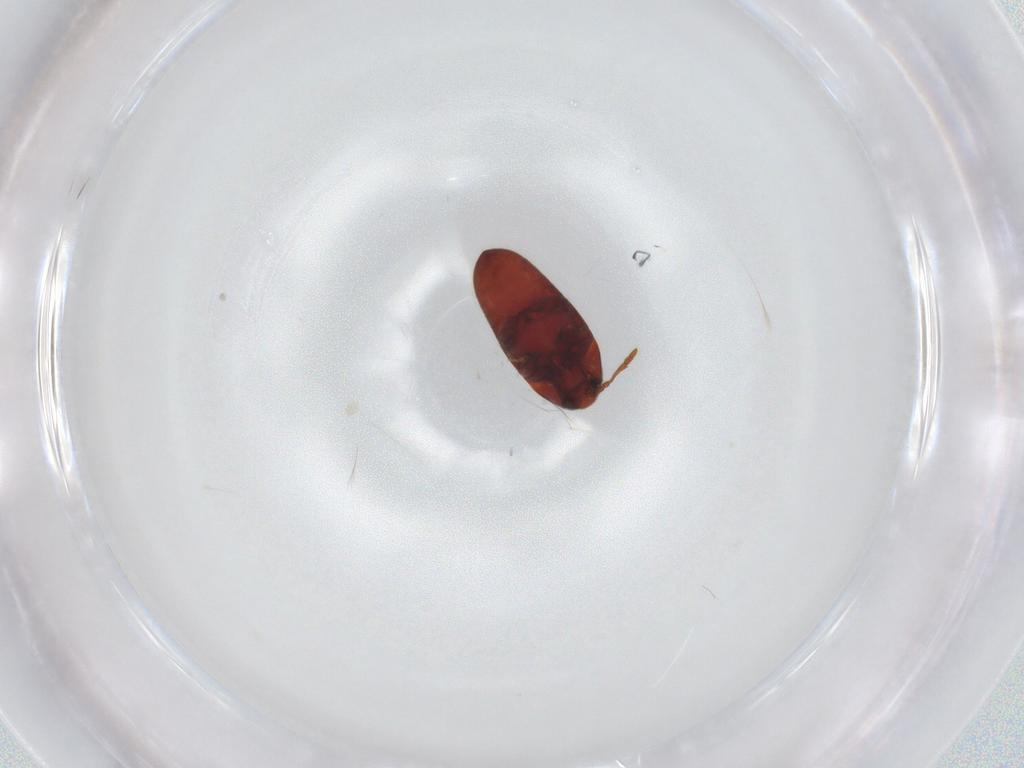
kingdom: Animalia
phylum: Arthropoda
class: Insecta
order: Coleoptera
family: Throscidae
